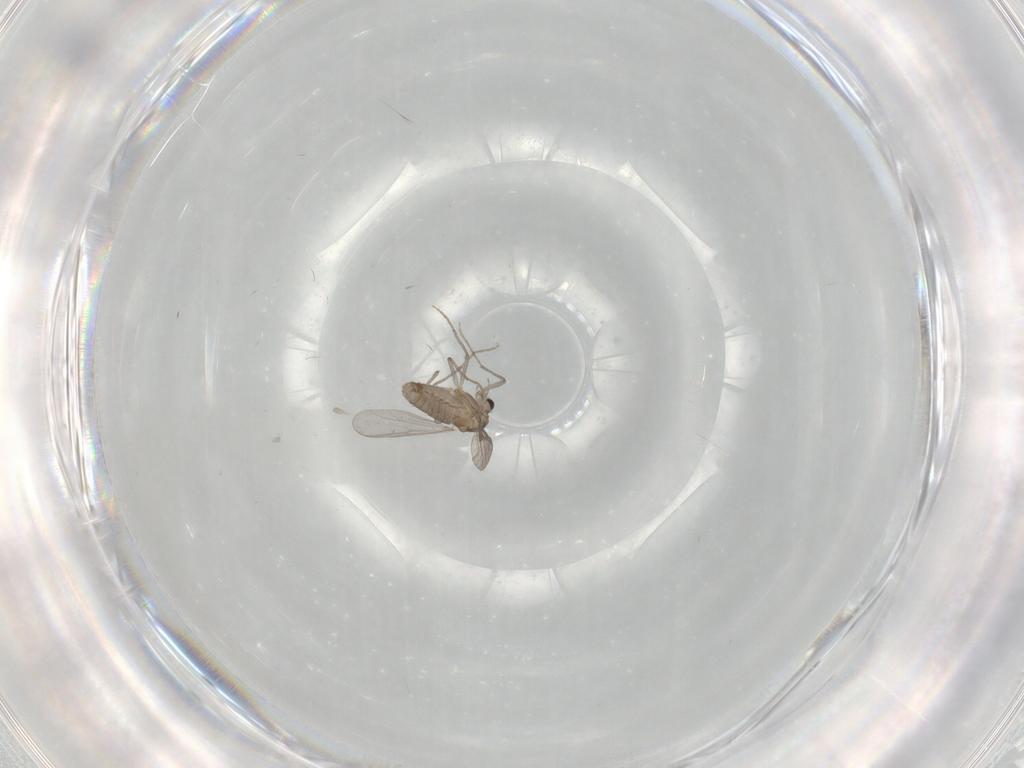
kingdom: Animalia
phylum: Arthropoda
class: Insecta
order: Diptera
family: Chironomidae
